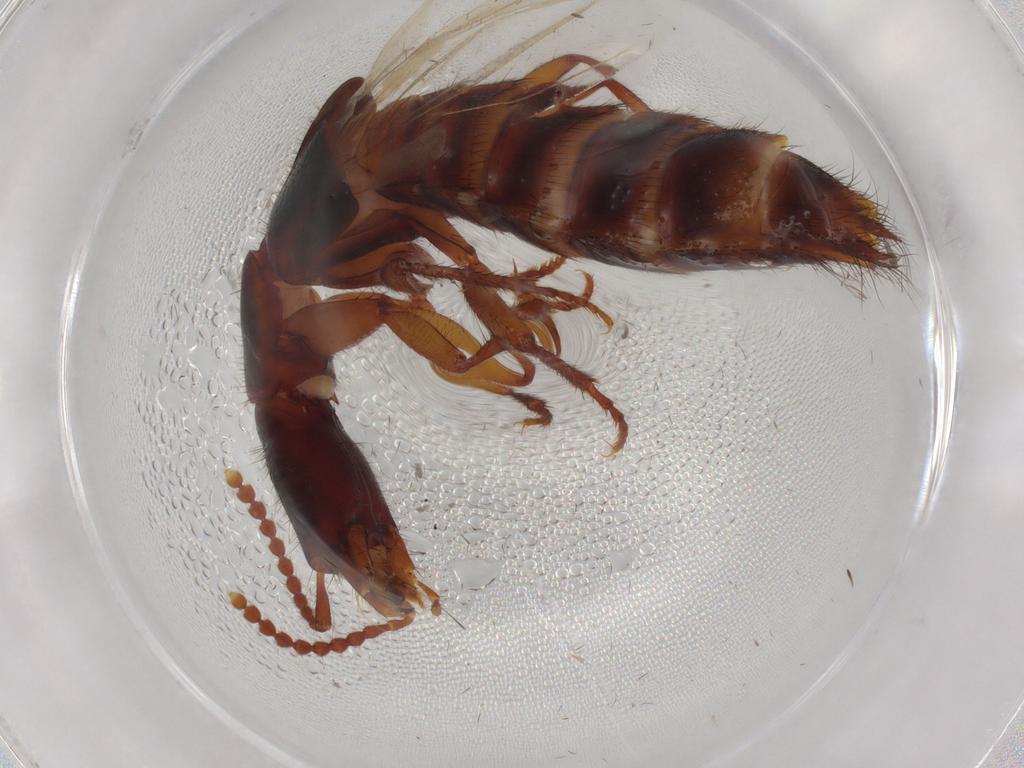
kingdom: Animalia
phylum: Arthropoda
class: Insecta
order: Coleoptera
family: Staphylinidae
